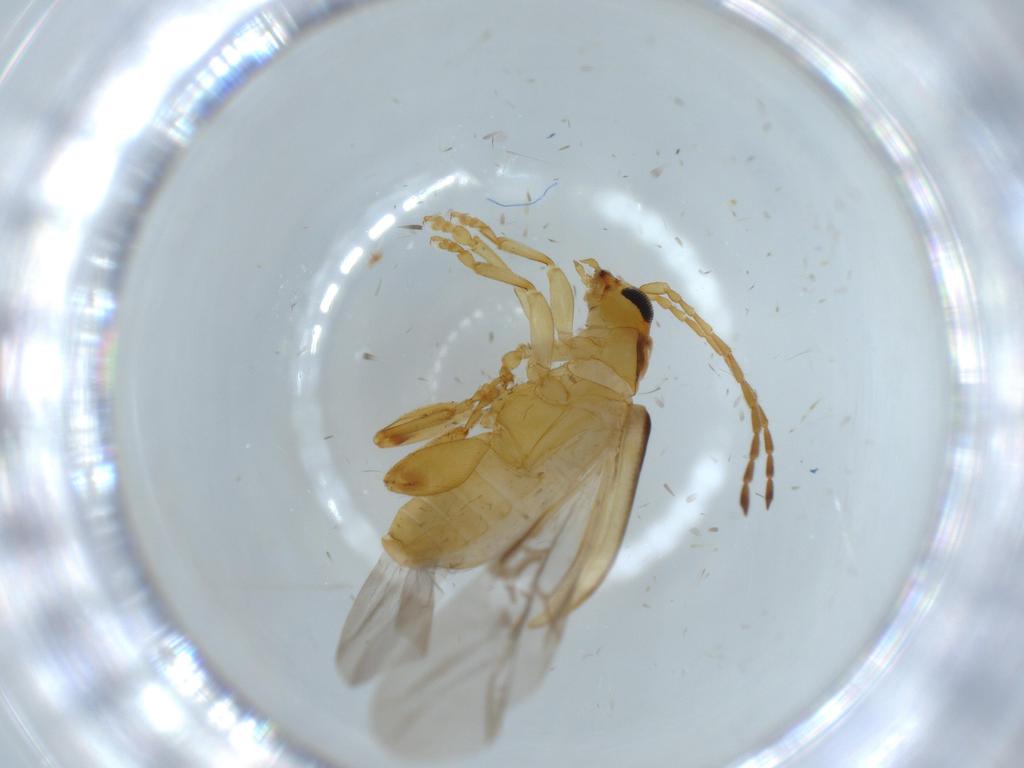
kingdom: Animalia
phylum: Arthropoda
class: Insecta
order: Coleoptera
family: Chrysomelidae
